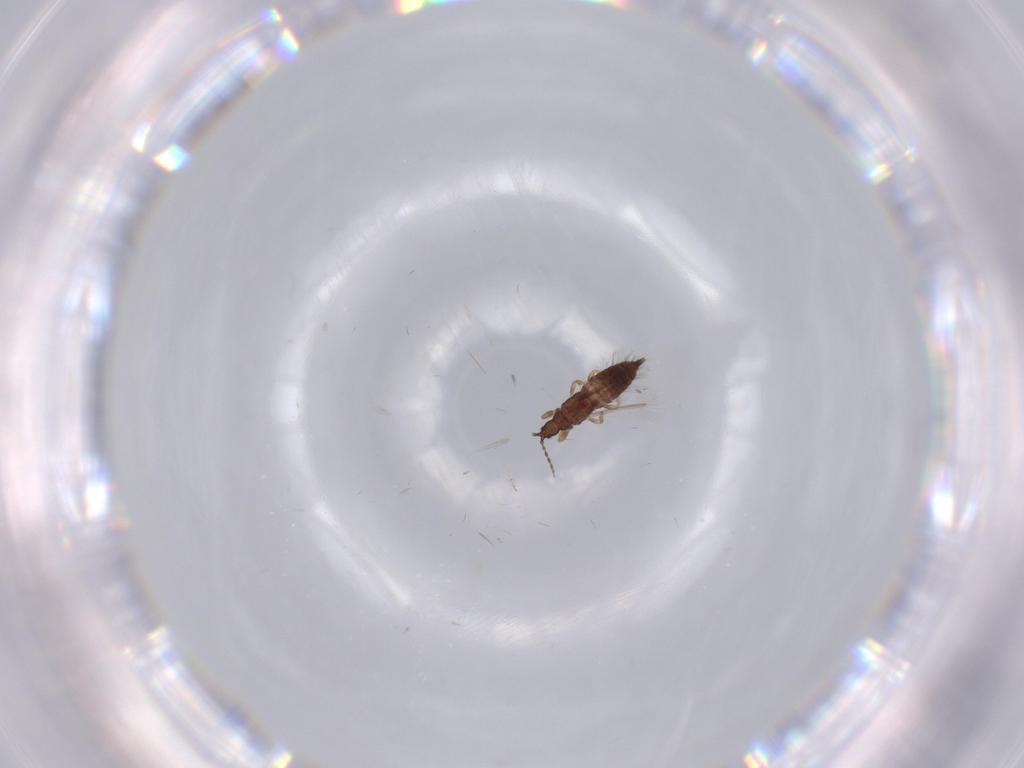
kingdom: Animalia
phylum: Arthropoda
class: Insecta
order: Thysanoptera
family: Phlaeothripidae
